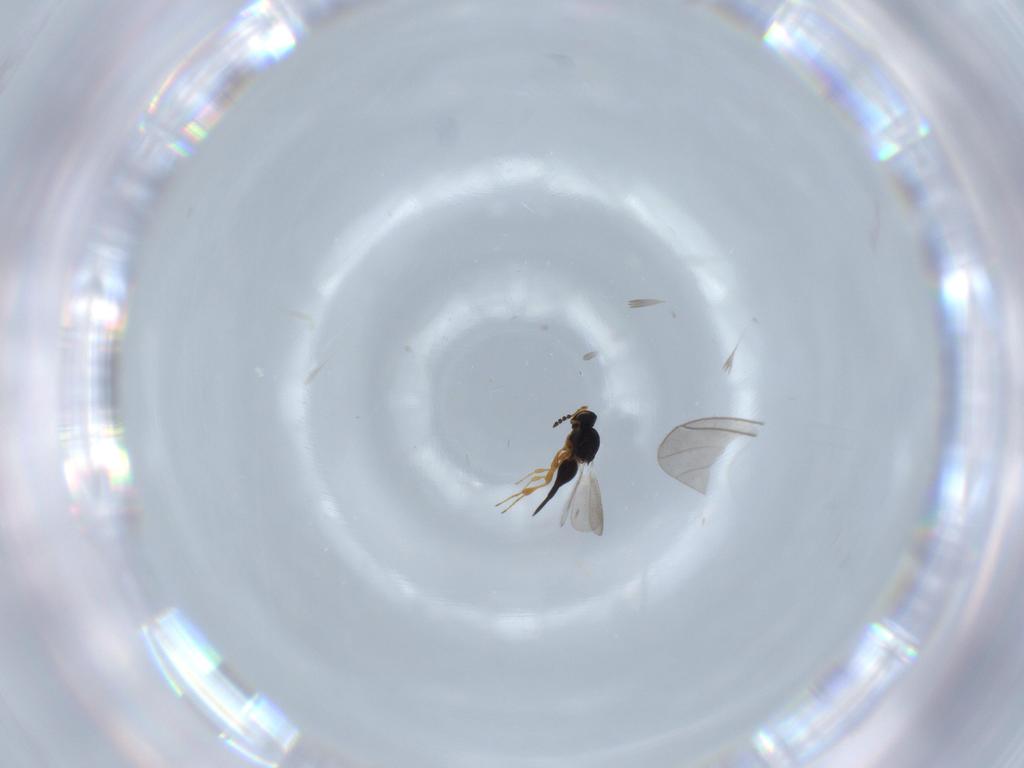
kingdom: Animalia
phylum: Arthropoda
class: Insecta
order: Hymenoptera
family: Platygastridae
